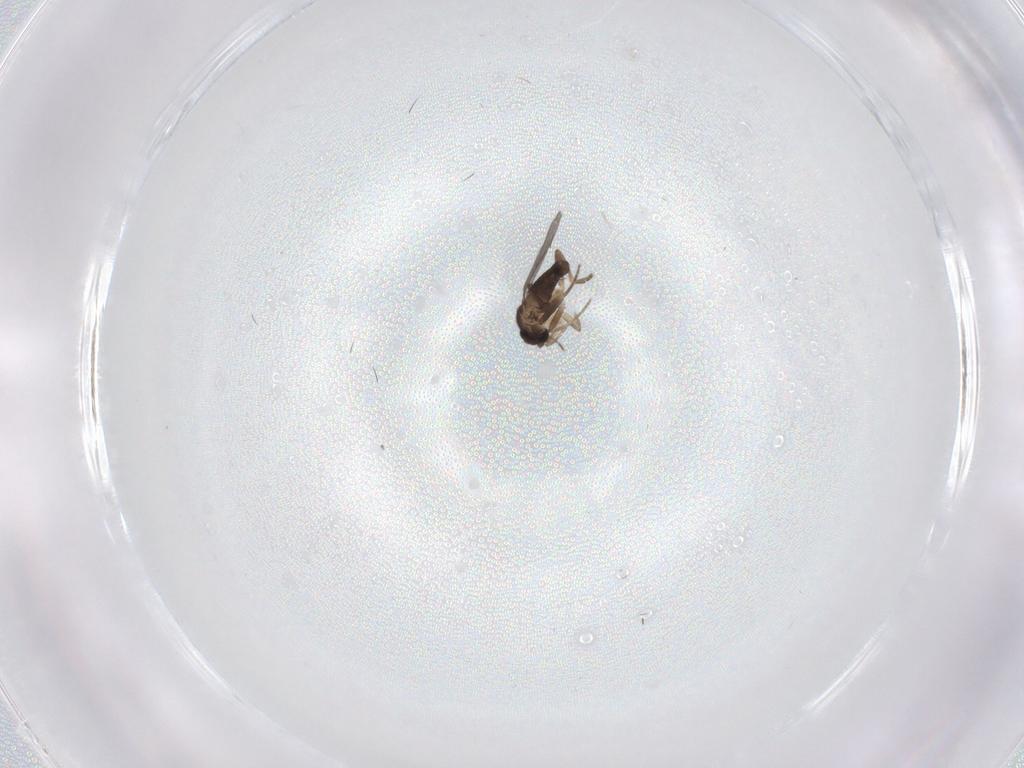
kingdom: Animalia
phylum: Arthropoda
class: Insecta
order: Diptera
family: Cecidomyiidae
